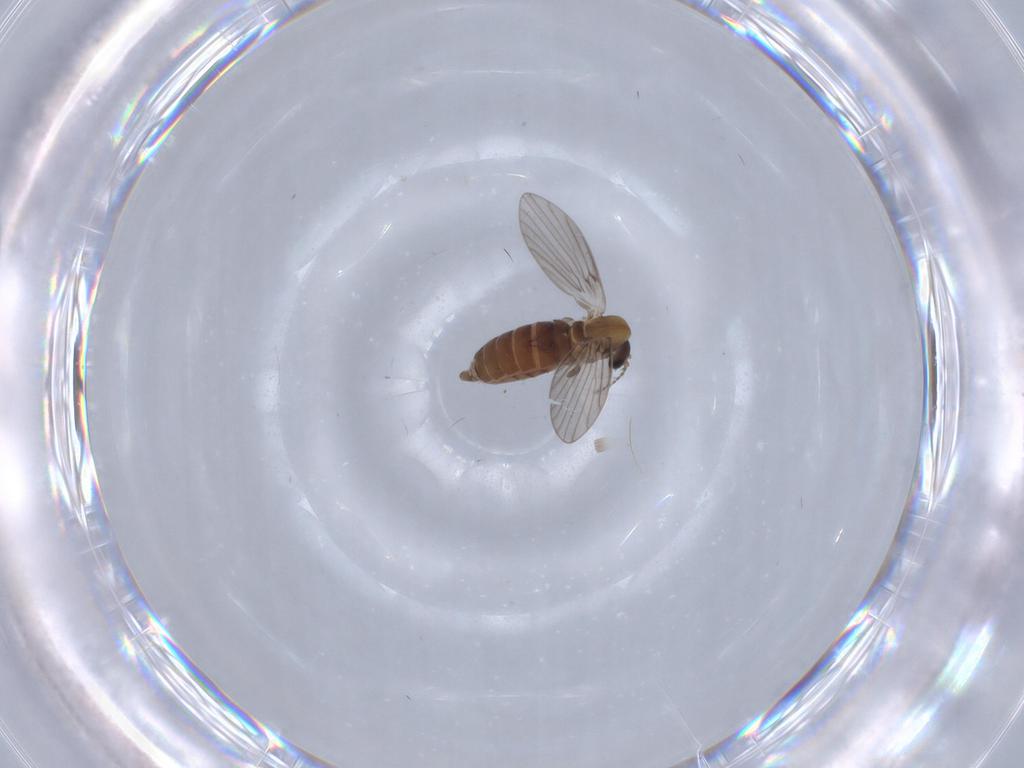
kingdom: Animalia
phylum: Arthropoda
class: Insecta
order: Diptera
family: Psychodidae
